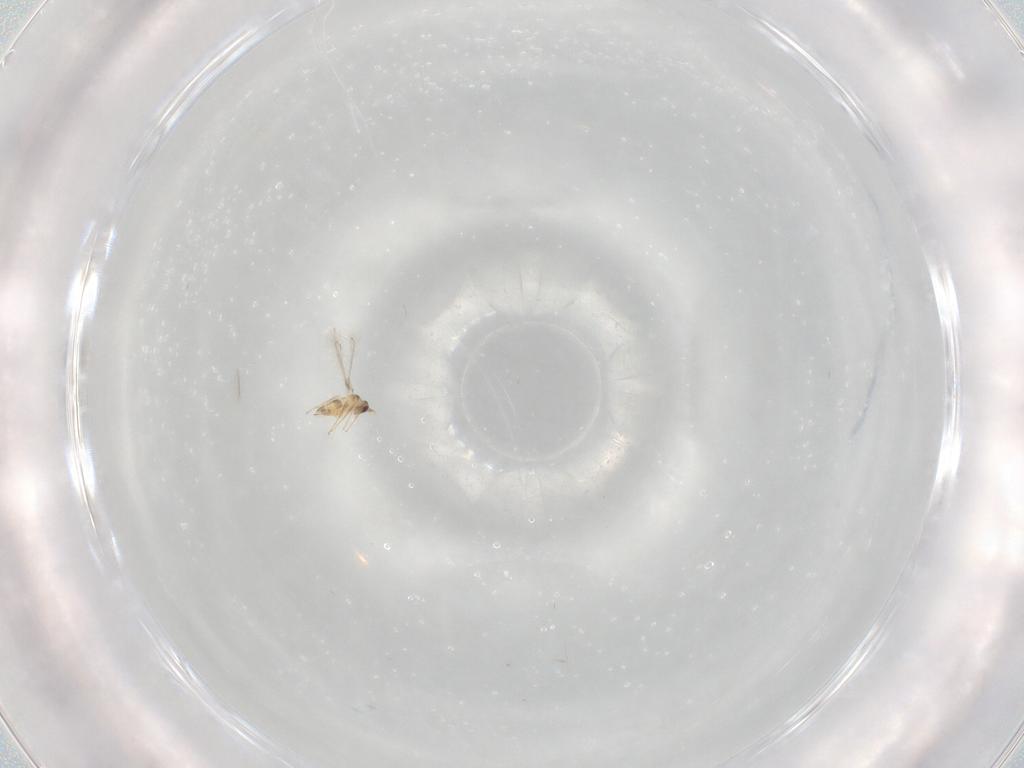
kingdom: Animalia
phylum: Arthropoda
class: Insecta
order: Hymenoptera
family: Mymaridae
